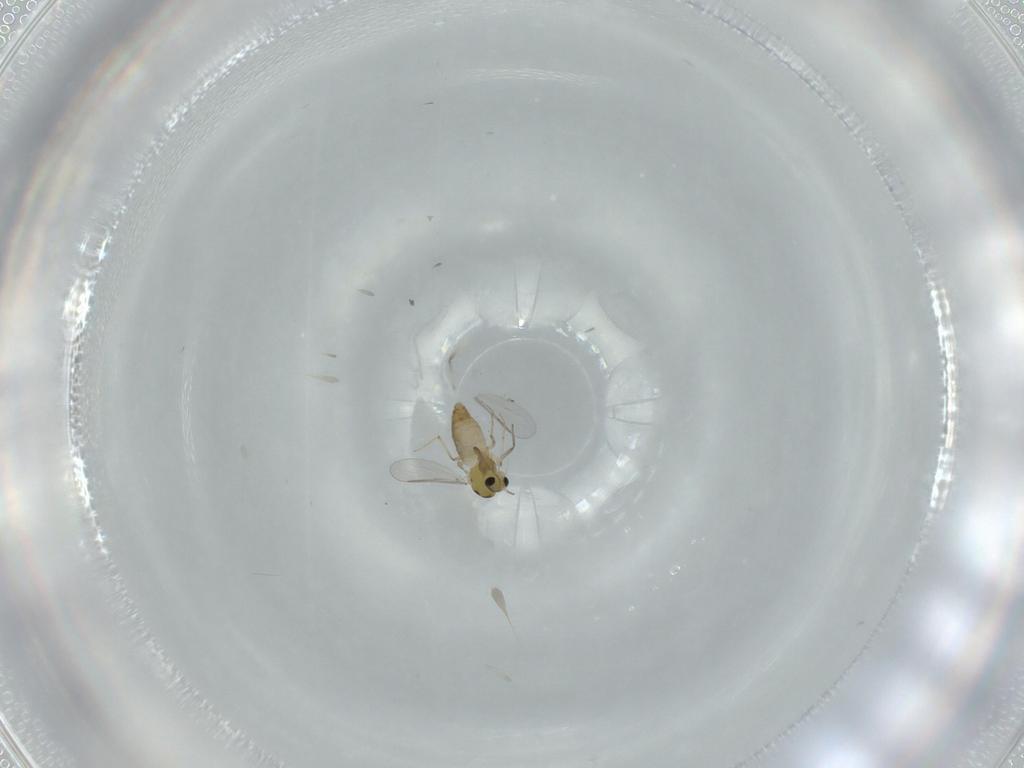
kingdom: Animalia
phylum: Arthropoda
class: Insecta
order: Diptera
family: Chironomidae
